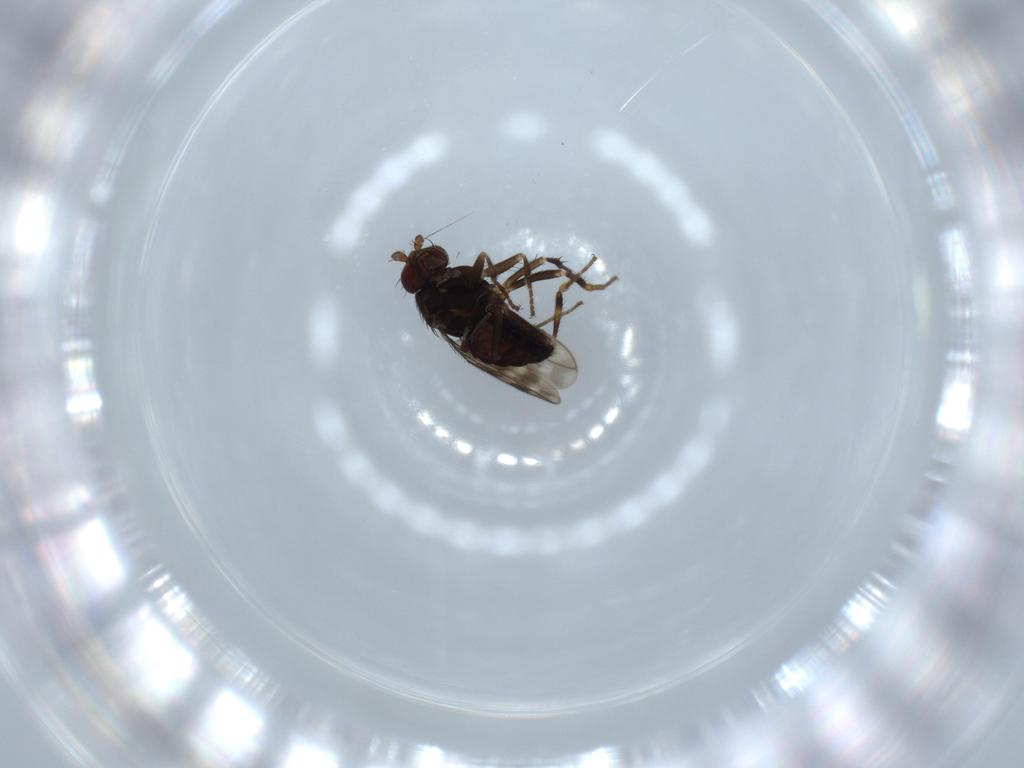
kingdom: Animalia
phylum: Arthropoda
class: Insecta
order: Diptera
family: Sphaeroceridae
